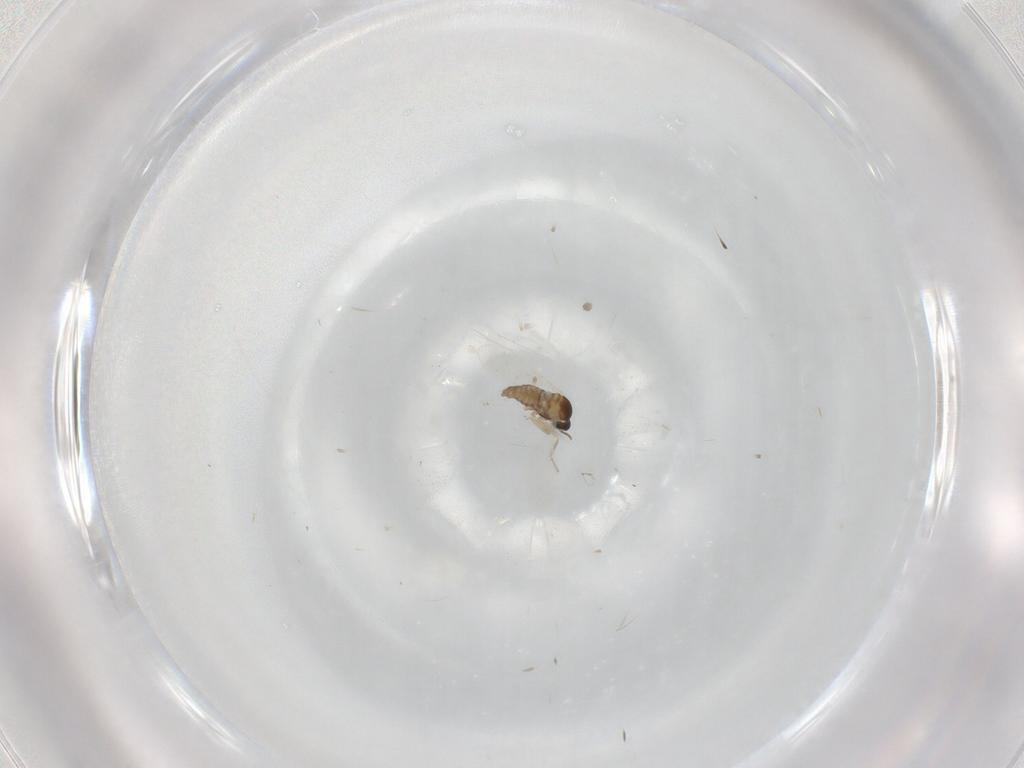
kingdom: Animalia
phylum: Arthropoda
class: Insecta
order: Diptera
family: Cecidomyiidae
